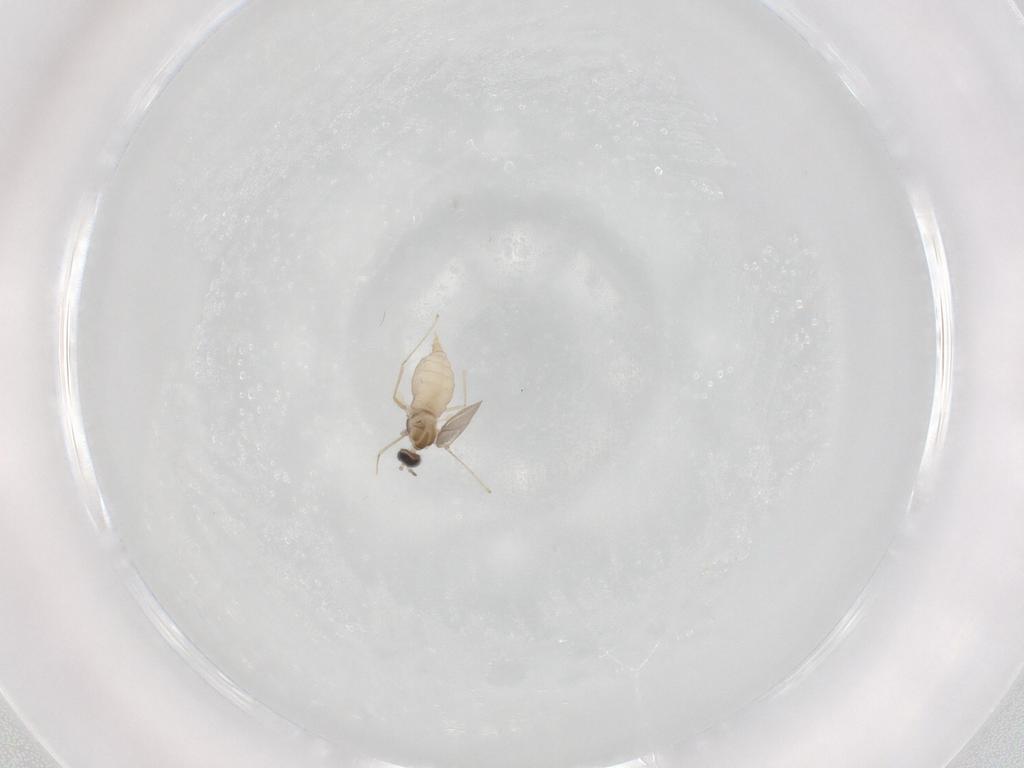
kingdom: Animalia
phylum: Arthropoda
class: Insecta
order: Diptera
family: Cecidomyiidae
